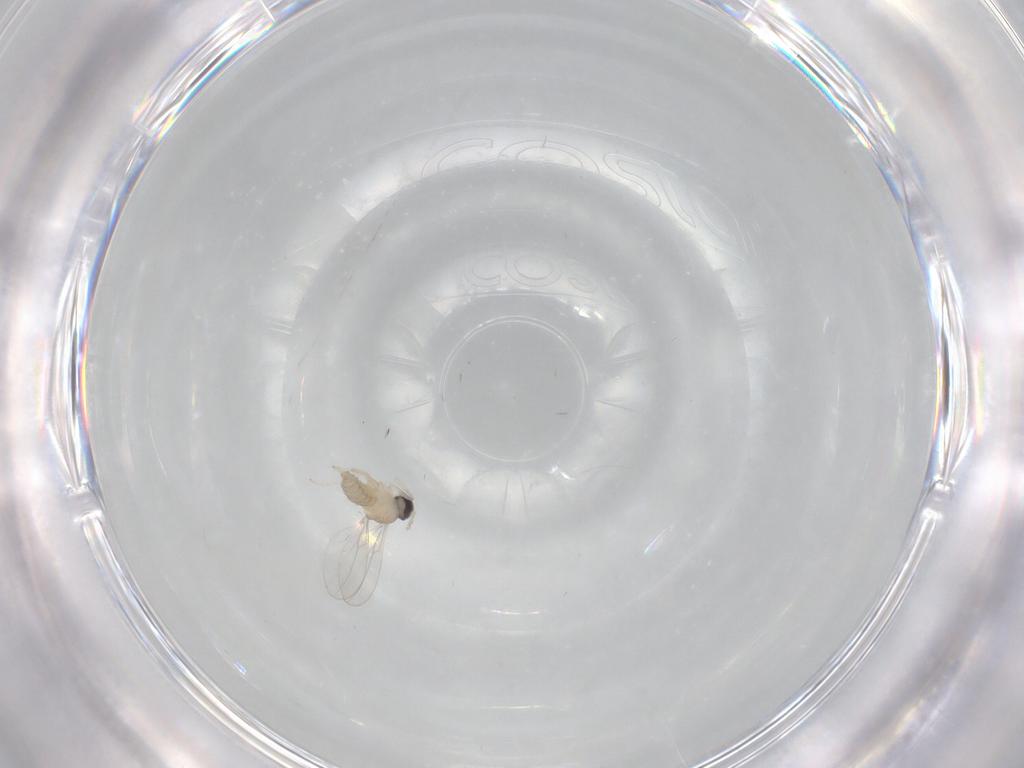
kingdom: Animalia
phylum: Arthropoda
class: Insecta
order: Diptera
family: Cecidomyiidae
